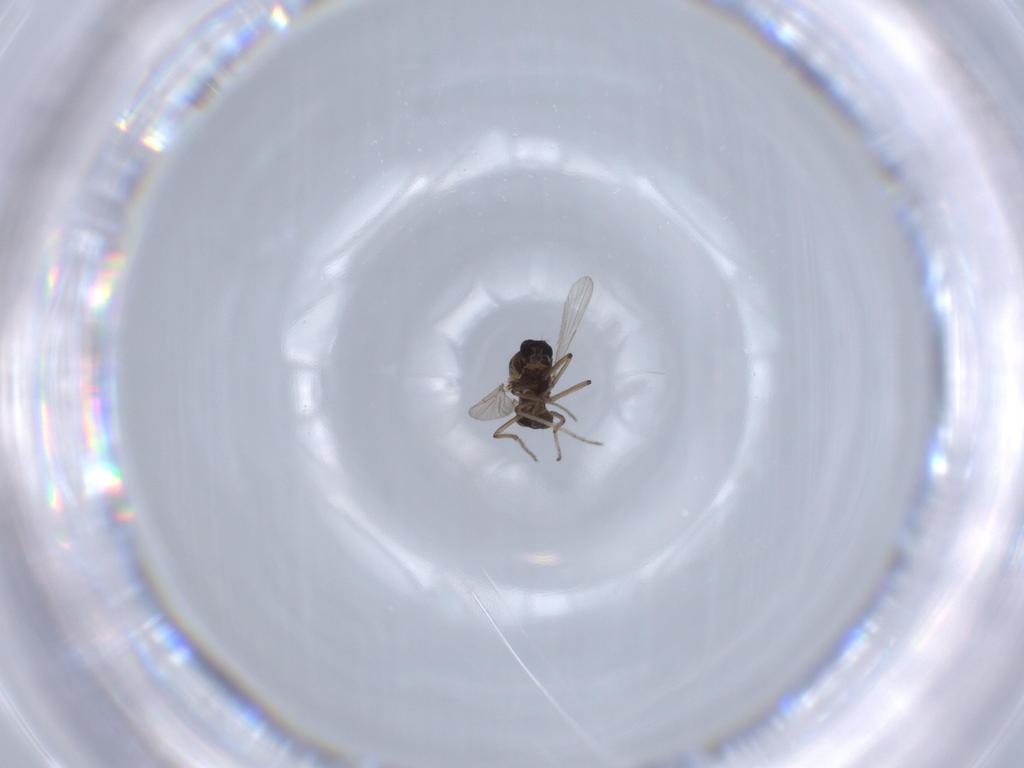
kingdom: Animalia
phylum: Arthropoda
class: Insecta
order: Diptera
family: Ceratopogonidae
